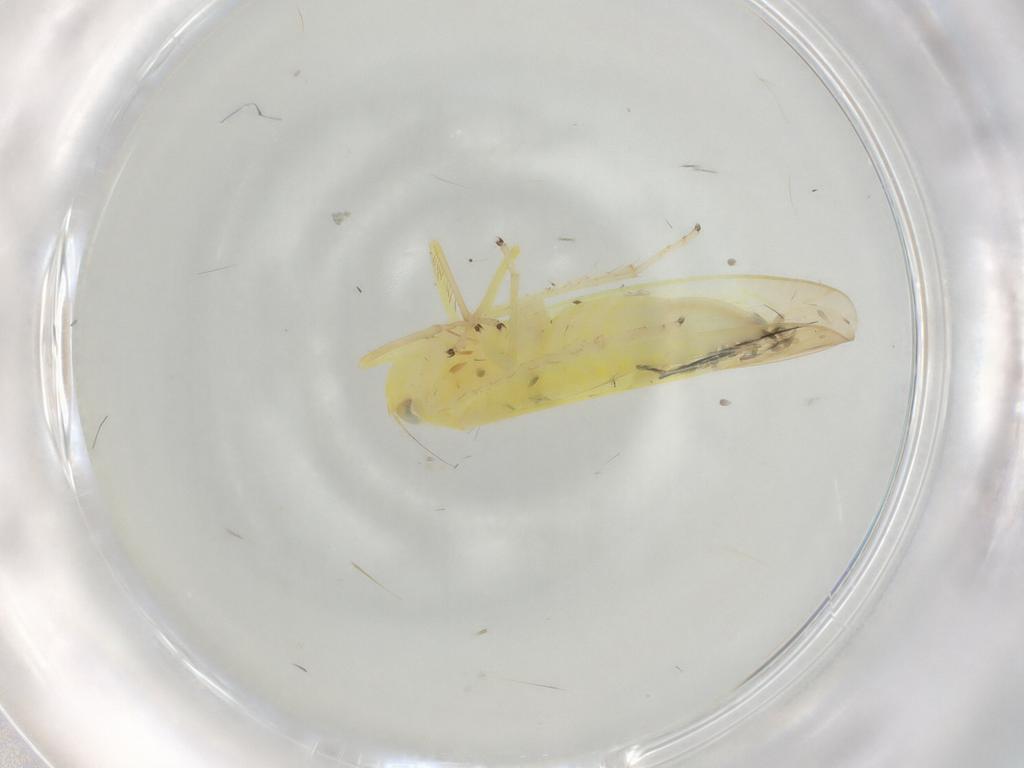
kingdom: Animalia
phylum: Arthropoda
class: Insecta
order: Hemiptera
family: Cicadellidae
